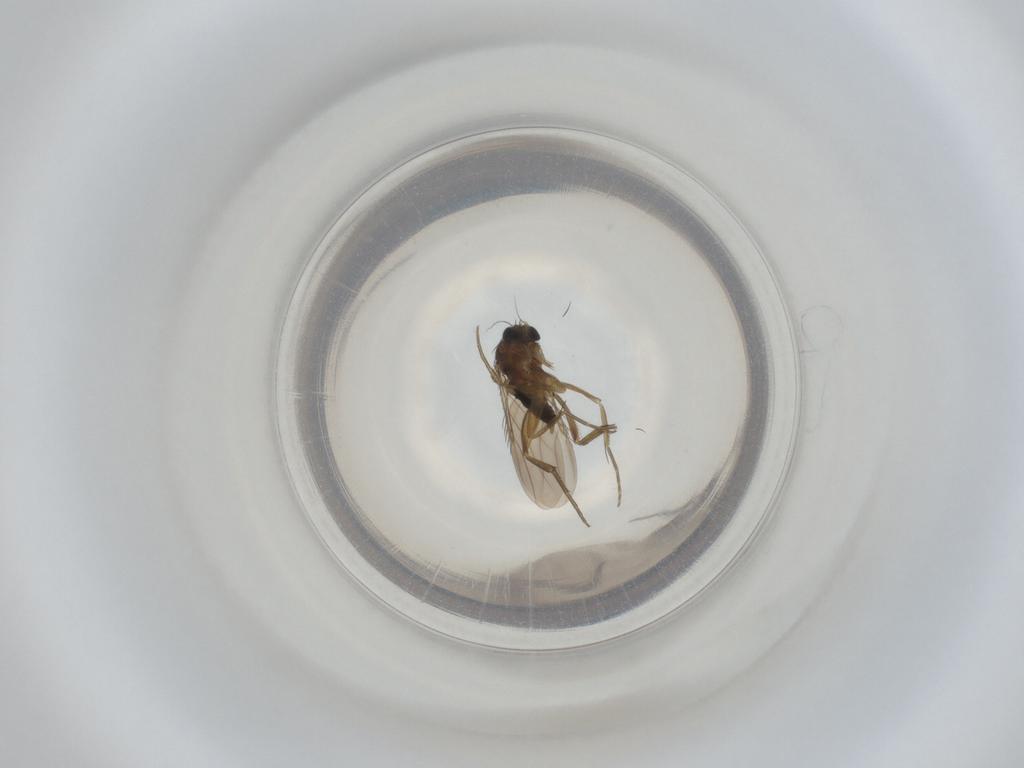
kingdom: Animalia
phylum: Arthropoda
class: Insecta
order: Diptera
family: Phoridae
